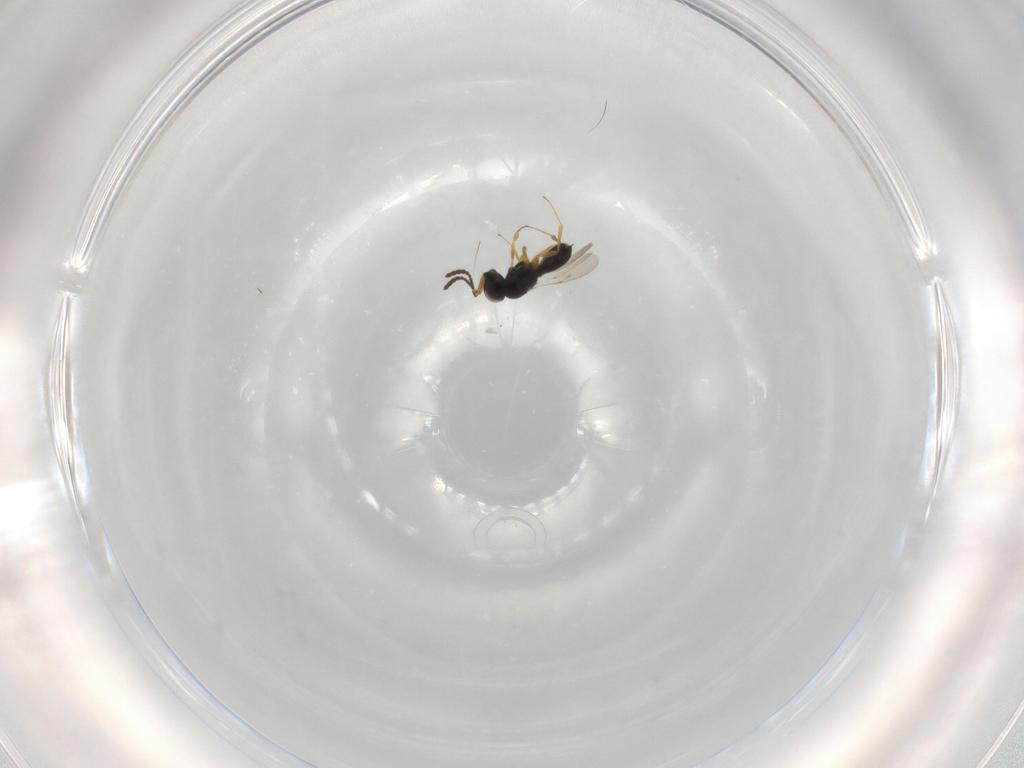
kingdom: Animalia
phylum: Arthropoda
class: Insecta
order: Hymenoptera
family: Scelionidae
